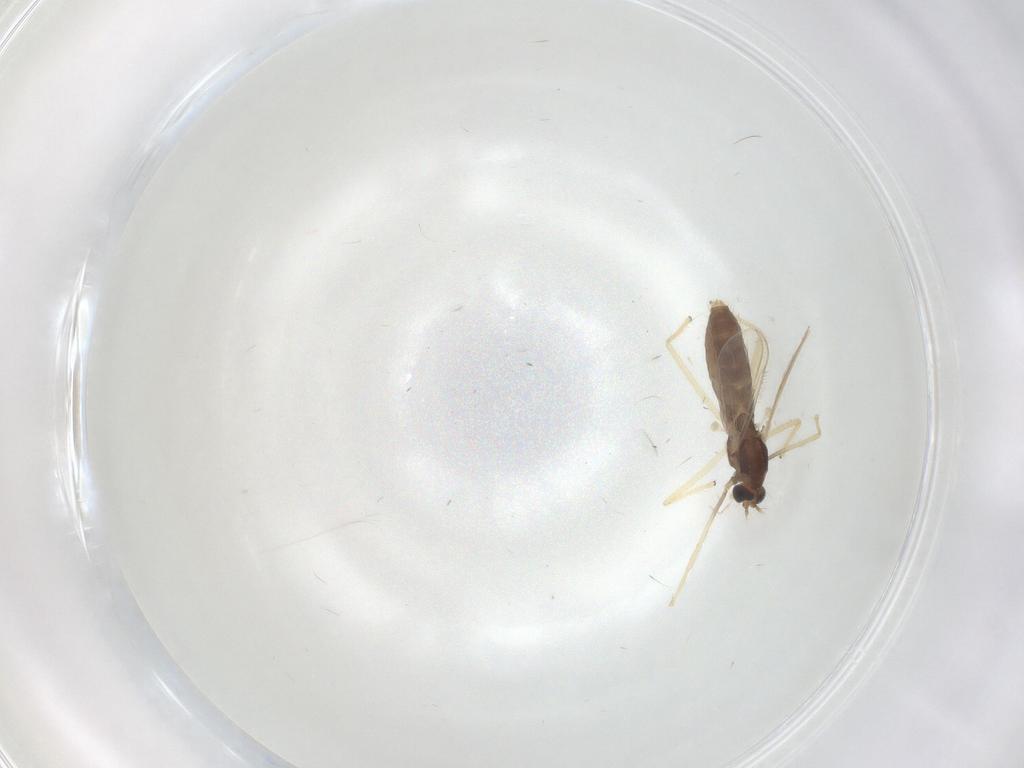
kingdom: Animalia
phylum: Arthropoda
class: Insecta
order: Diptera
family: Chironomidae
